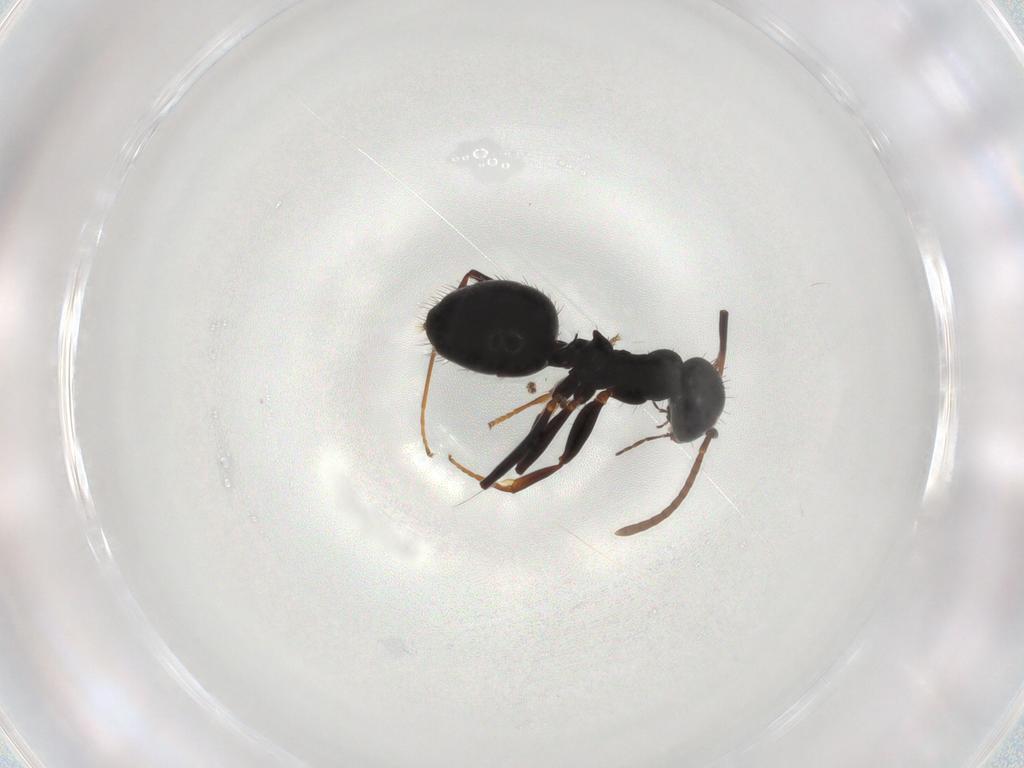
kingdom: Animalia
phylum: Arthropoda
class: Insecta
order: Hymenoptera
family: Formicidae
